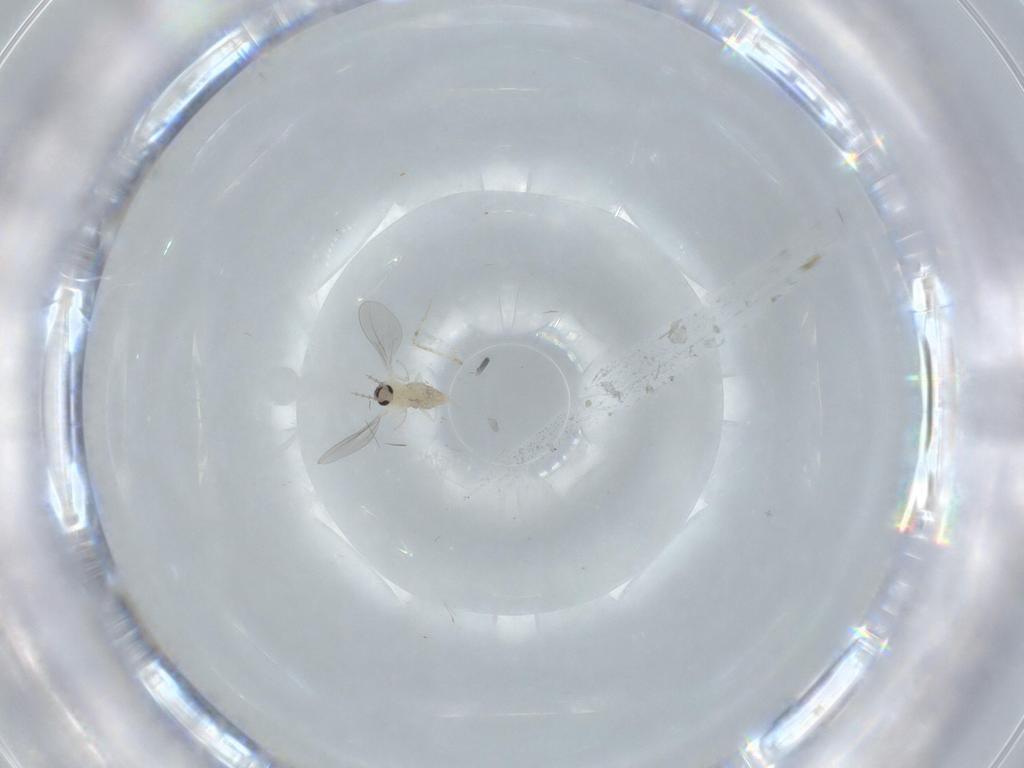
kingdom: Animalia
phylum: Arthropoda
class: Insecta
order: Diptera
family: Cecidomyiidae
